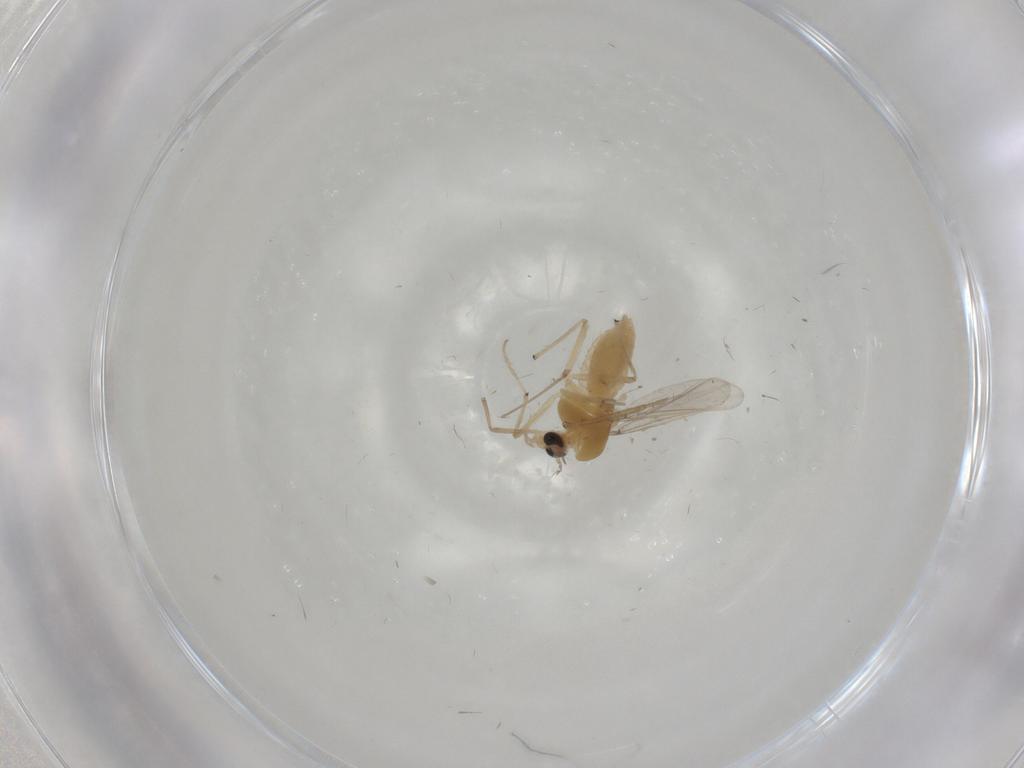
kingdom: Animalia
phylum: Arthropoda
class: Insecta
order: Diptera
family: Chironomidae
